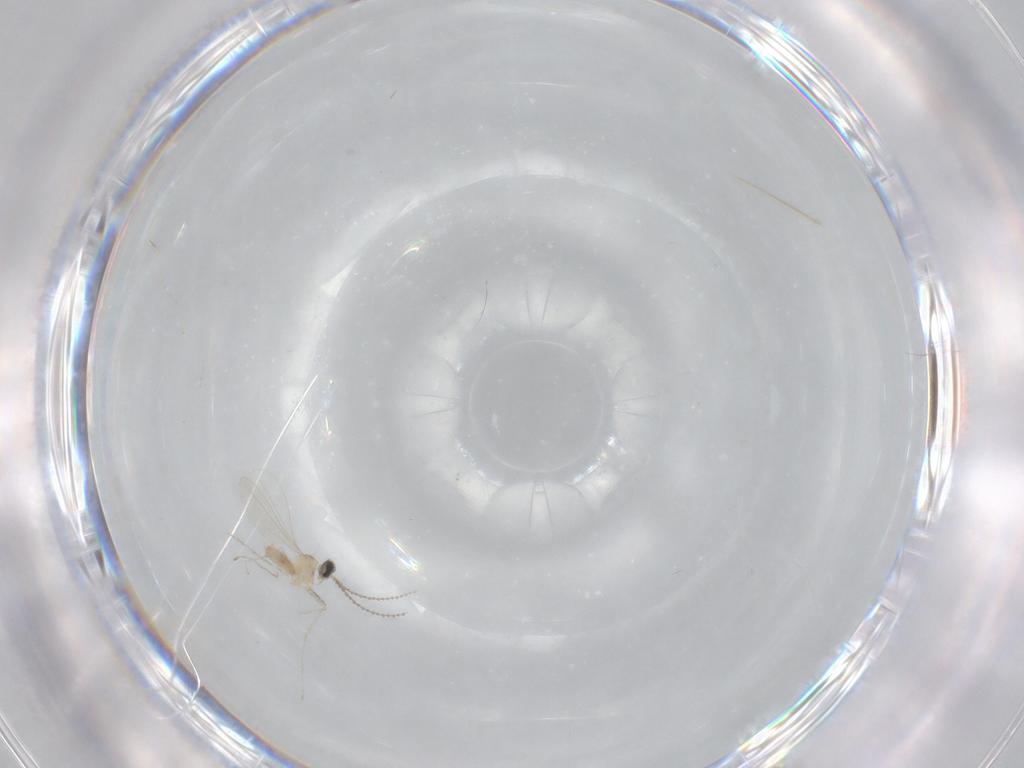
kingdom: Animalia
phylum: Arthropoda
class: Insecta
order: Diptera
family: Cecidomyiidae
